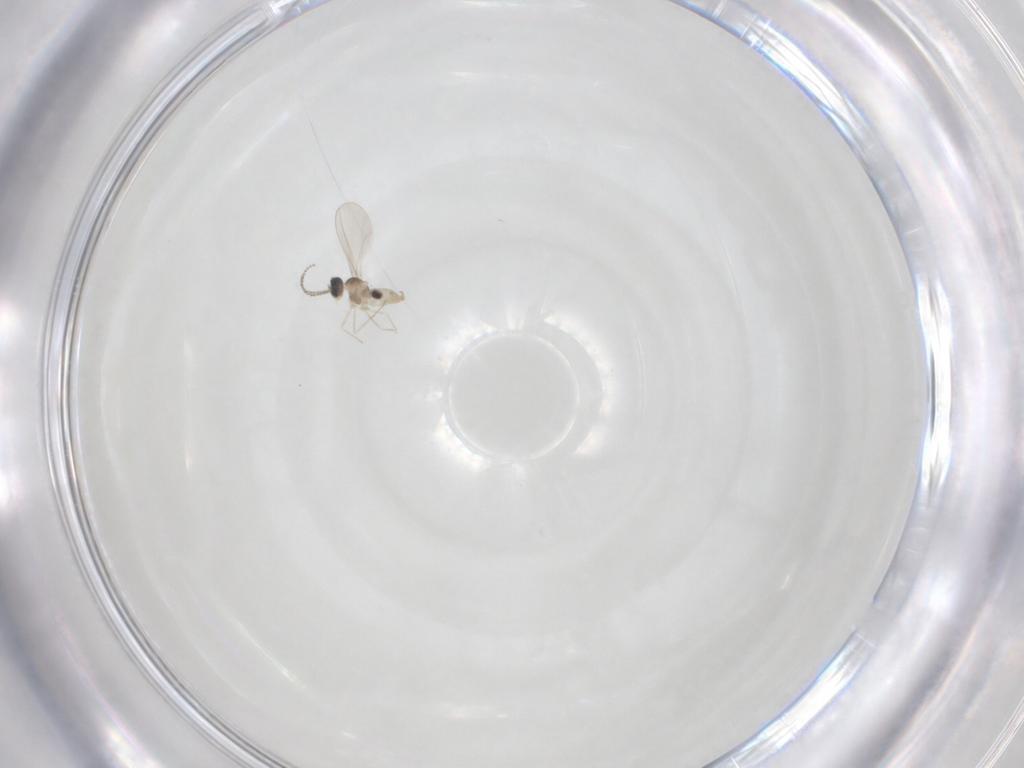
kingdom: Animalia
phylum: Arthropoda
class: Insecta
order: Diptera
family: Cecidomyiidae
